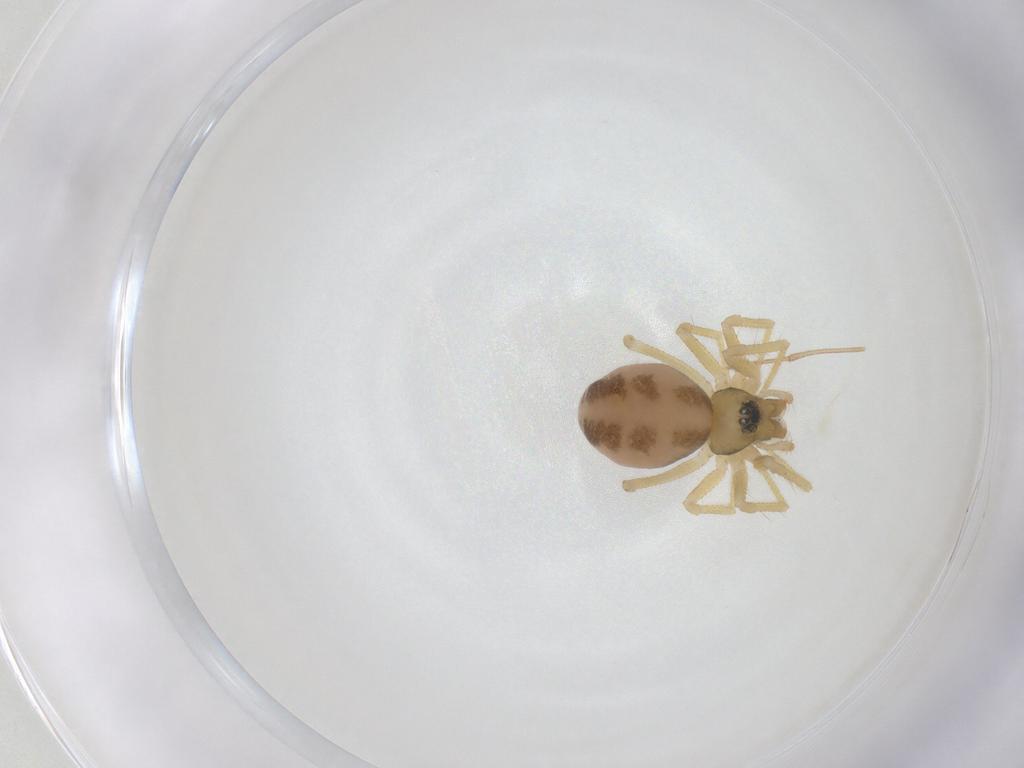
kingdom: Animalia
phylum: Arthropoda
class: Arachnida
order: Araneae
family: Linyphiidae
